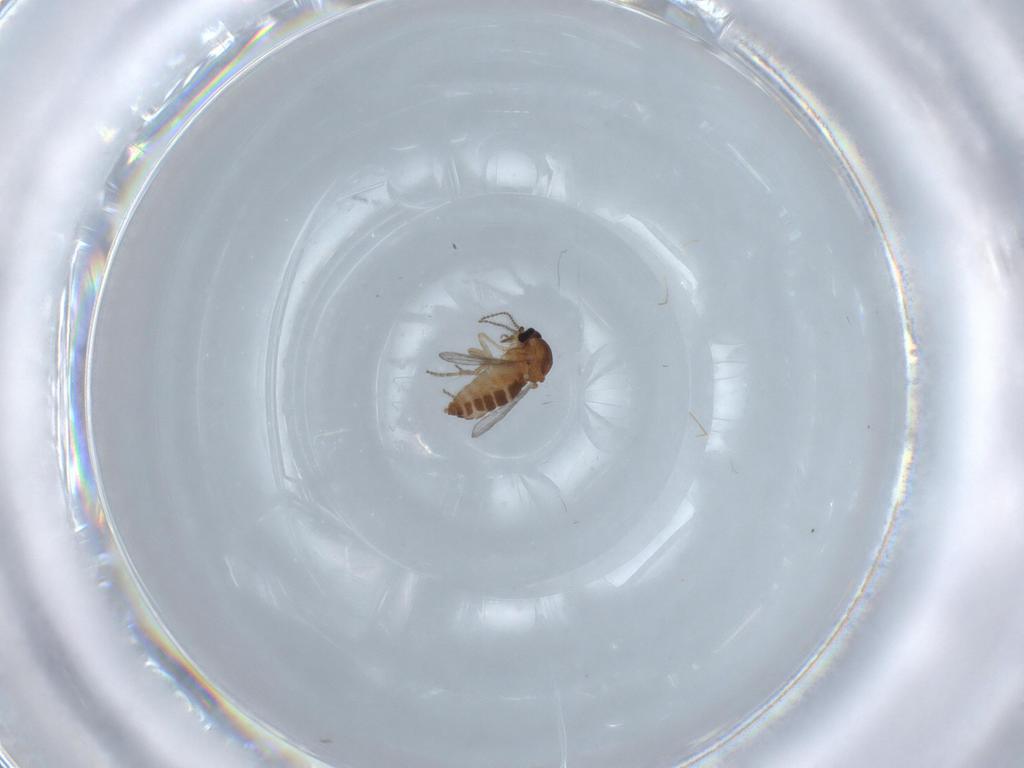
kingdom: Animalia
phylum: Arthropoda
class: Insecta
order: Diptera
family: Ceratopogonidae
